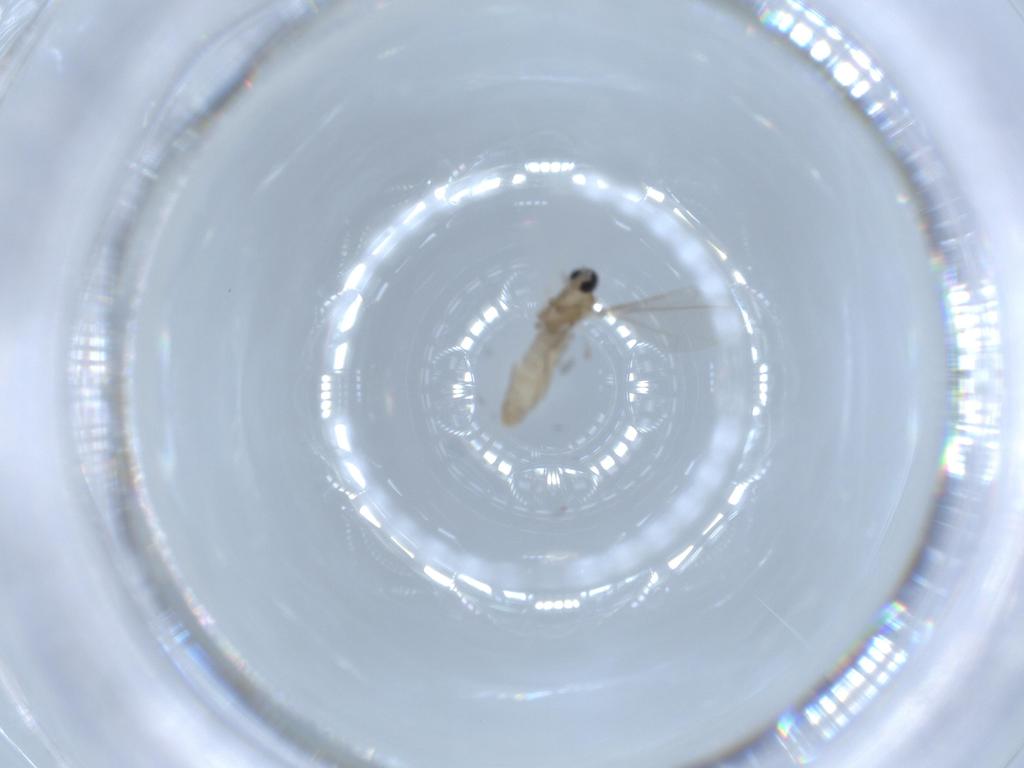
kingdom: Animalia
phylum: Arthropoda
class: Insecta
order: Diptera
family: Cecidomyiidae
